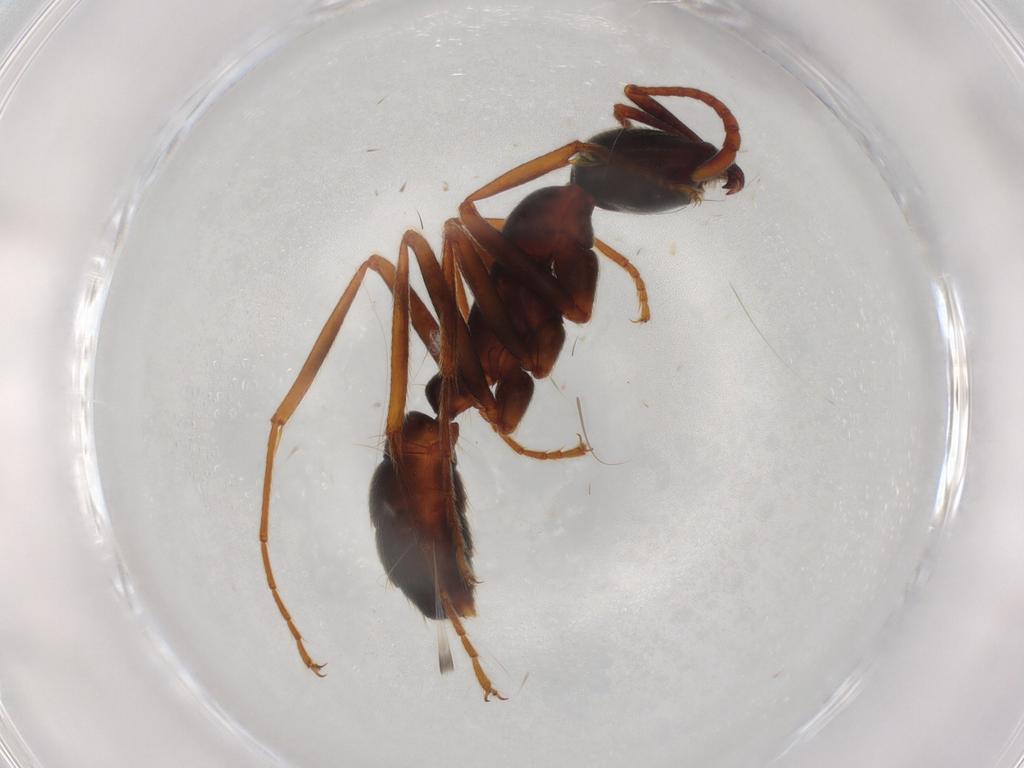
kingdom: Animalia
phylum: Arthropoda
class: Insecta
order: Hymenoptera
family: Formicidae
